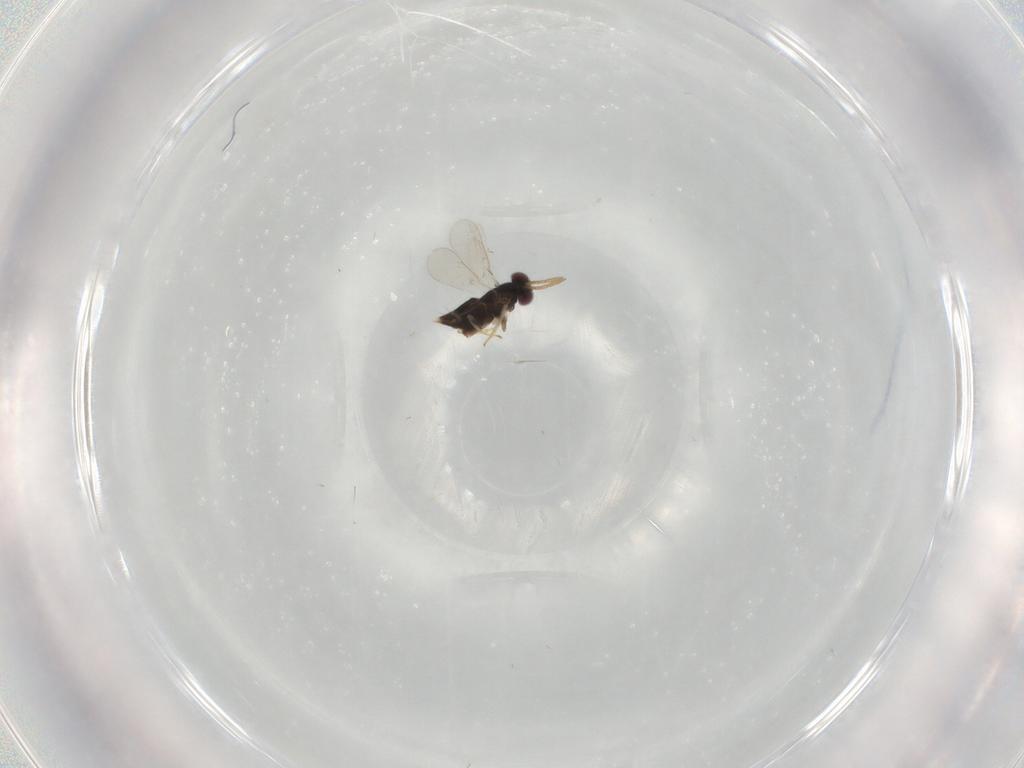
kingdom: Animalia
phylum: Arthropoda
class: Insecta
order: Hymenoptera
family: Aphelinidae
